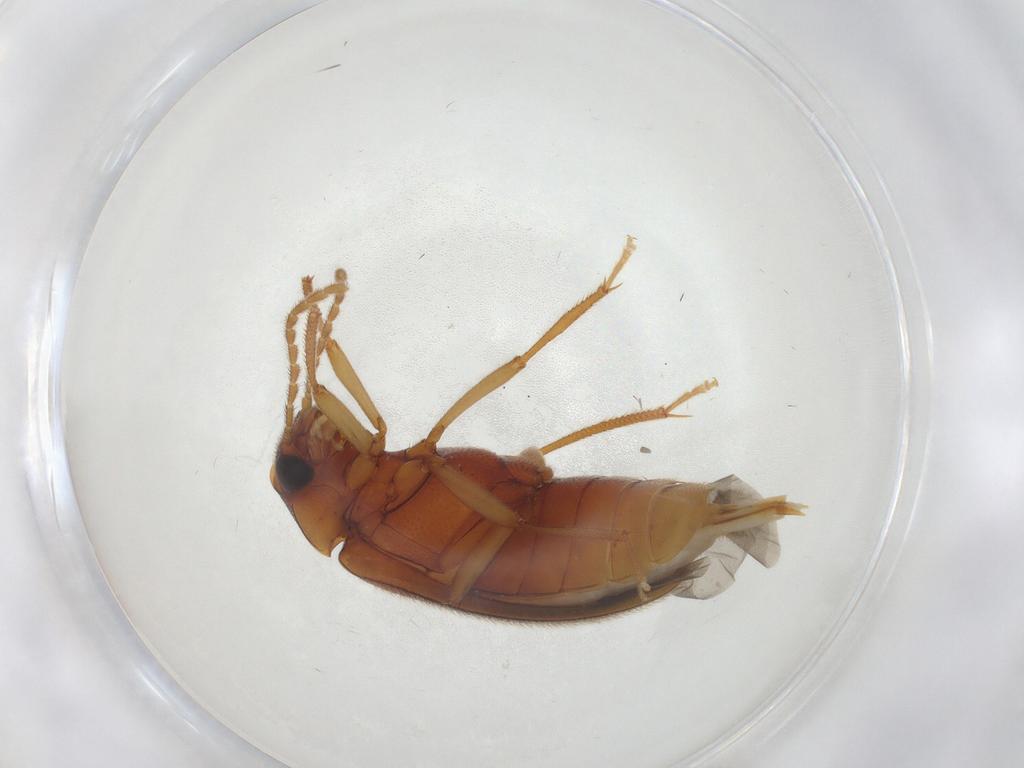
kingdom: Animalia
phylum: Arthropoda
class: Insecta
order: Coleoptera
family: Ptilodactylidae
